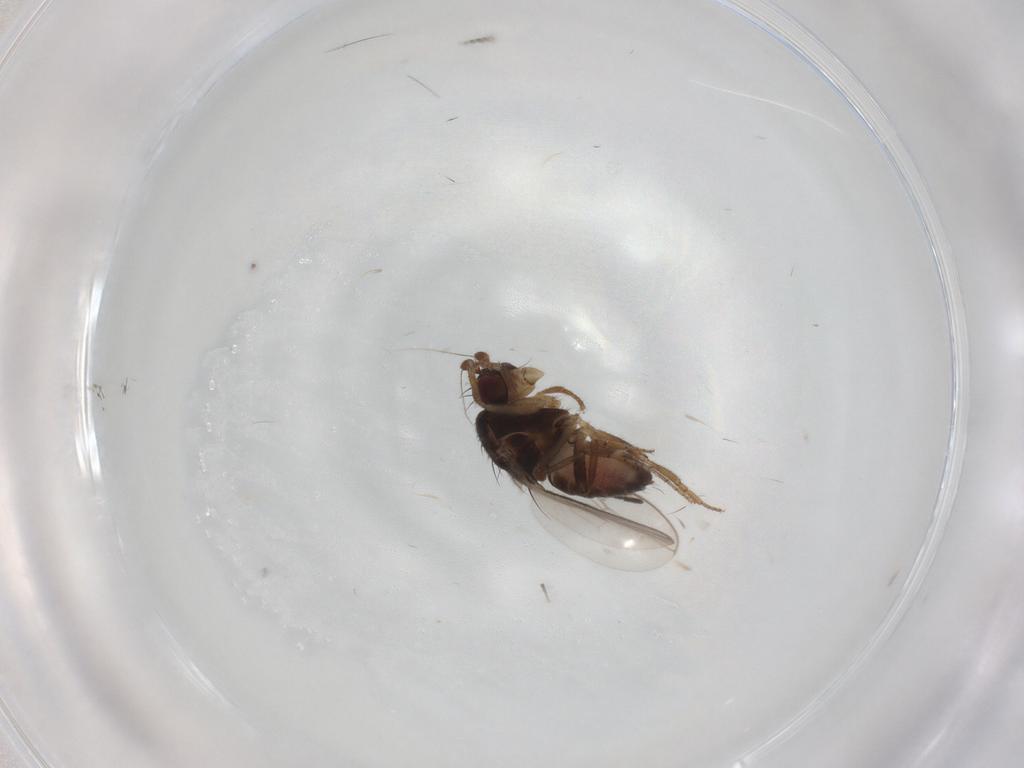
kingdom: Animalia
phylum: Arthropoda
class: Insecta
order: Diptera
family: Sphaeroceridae
